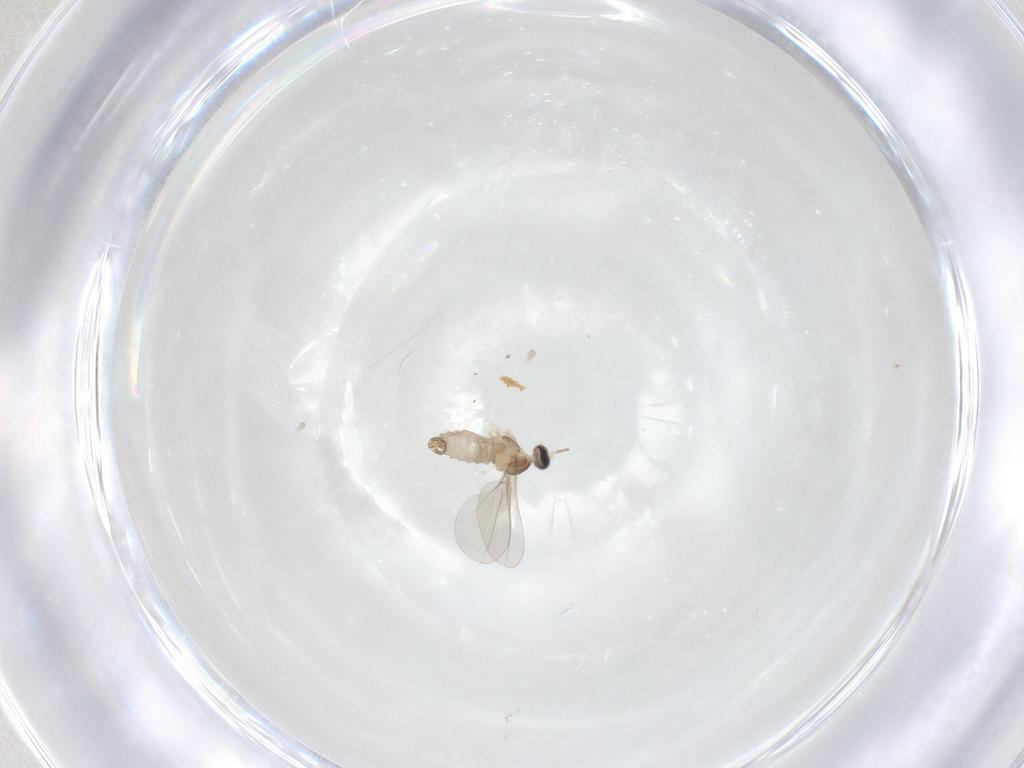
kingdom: Animalia
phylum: Arthropoda
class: Insecta
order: Diptera
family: Cecidomyiidae
